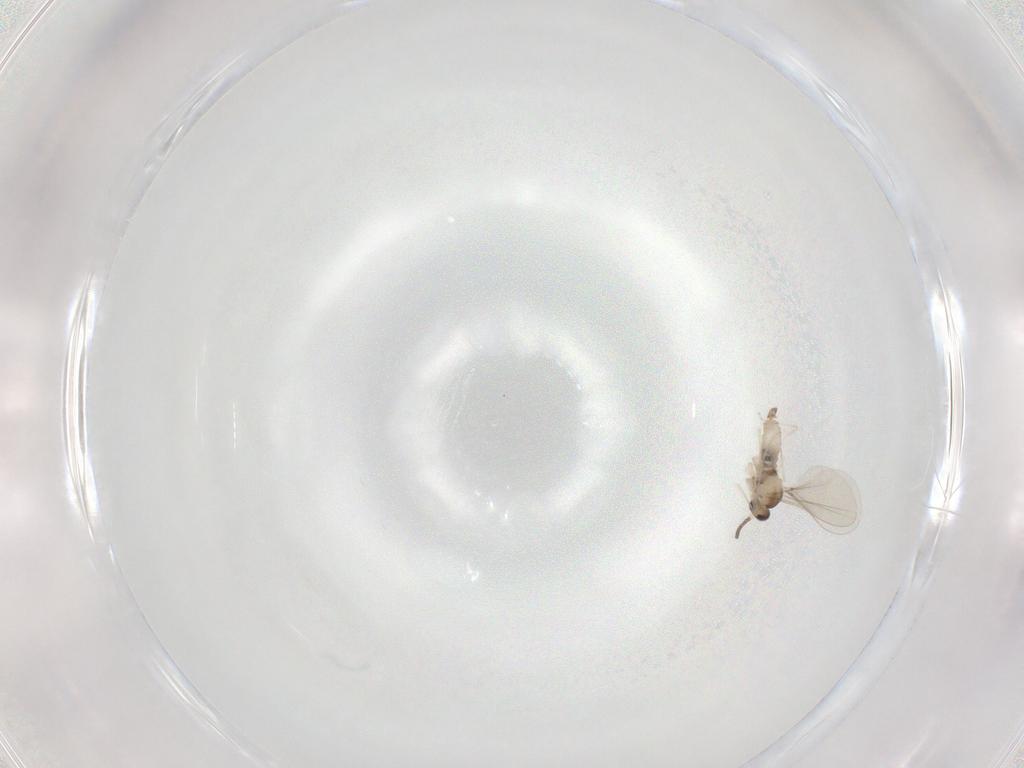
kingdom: Animalia
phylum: Arthropoda
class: Insecta
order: Diptera
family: Cecidomyiidae
